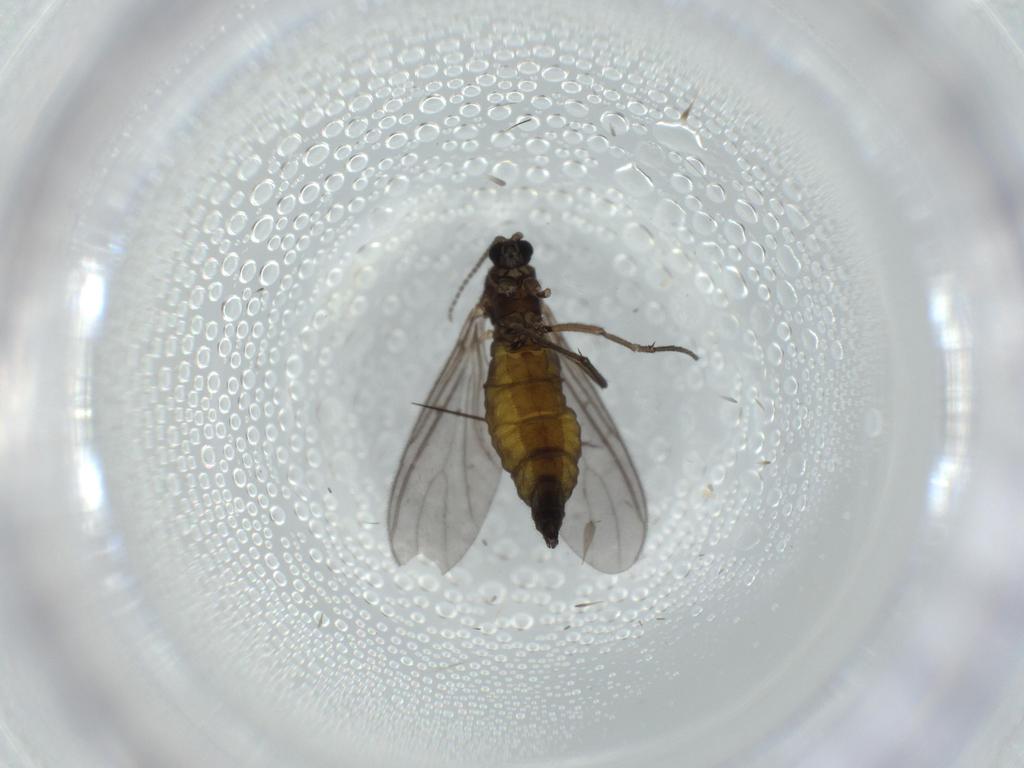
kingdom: Animalia
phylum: Arthropoda
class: Insecta
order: Diptera
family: Sciaridae
